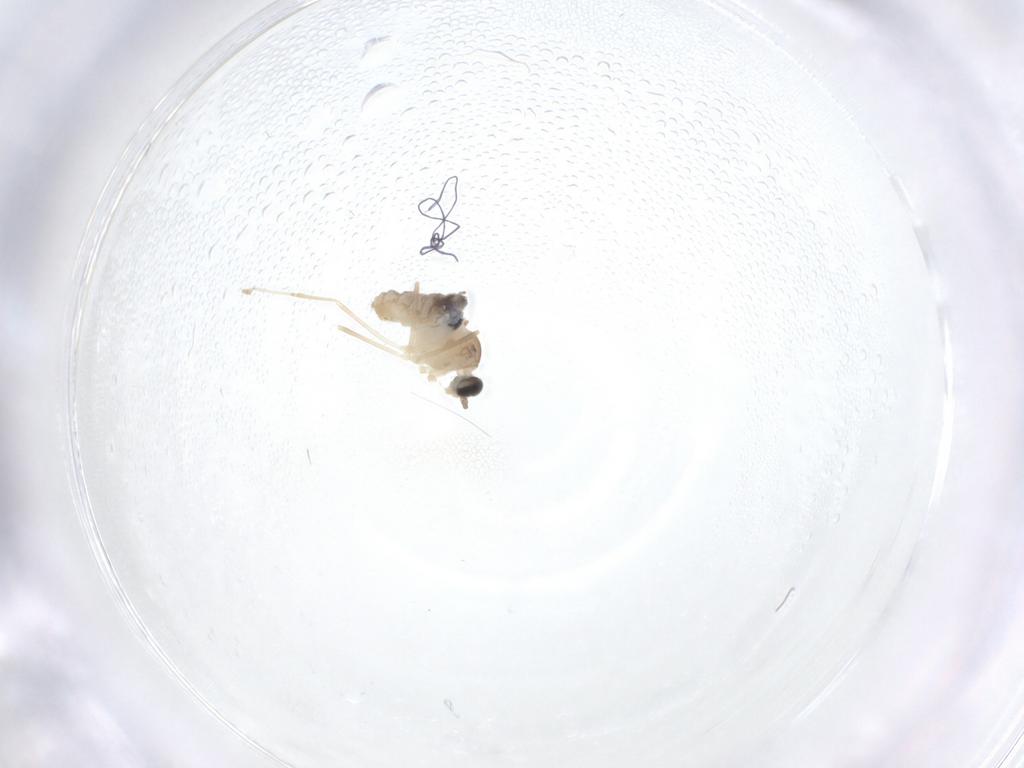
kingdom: Animalia
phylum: Arthropoda
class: Insecta
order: Diptera
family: Cecidomyiidae
